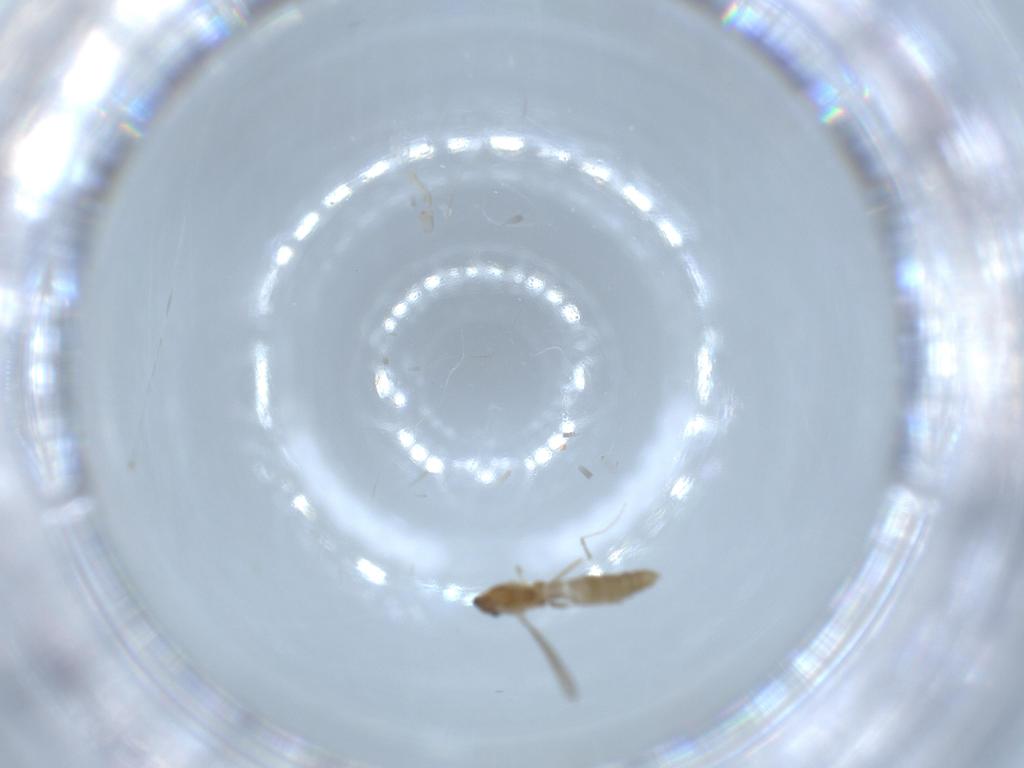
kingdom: Animalia
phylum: Arthropoda
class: Insecta
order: Diptera
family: Chironomidae
